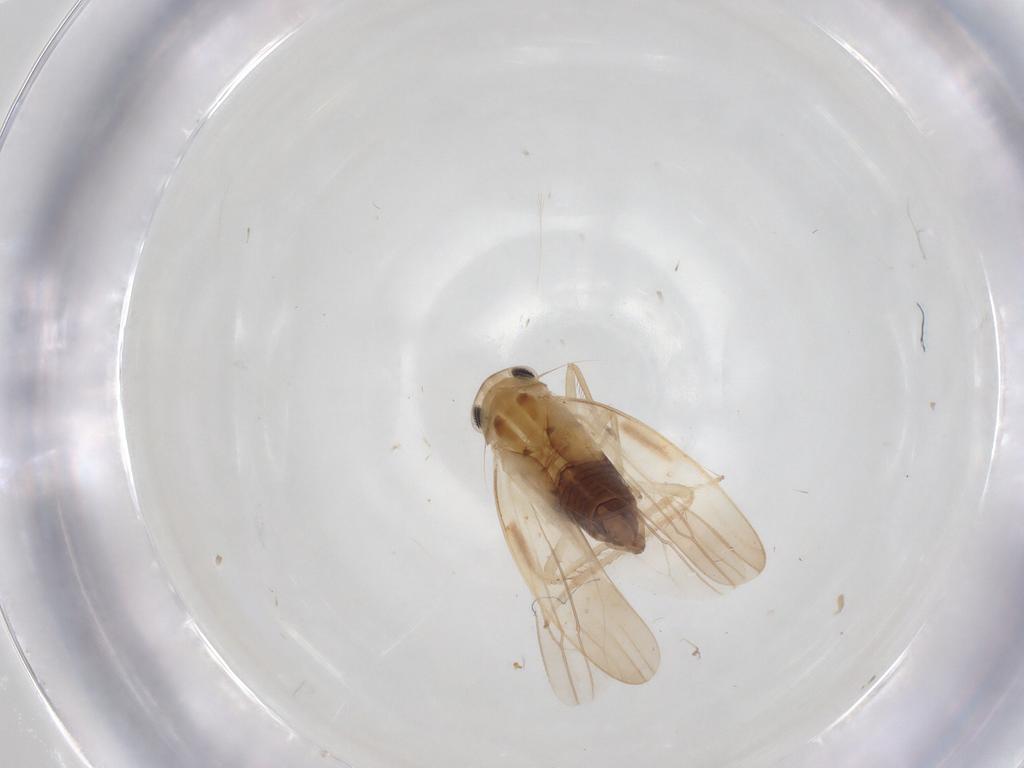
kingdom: Animalia
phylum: Arthropoda
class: Insecta
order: Hemiptera
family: Cicadellidae
